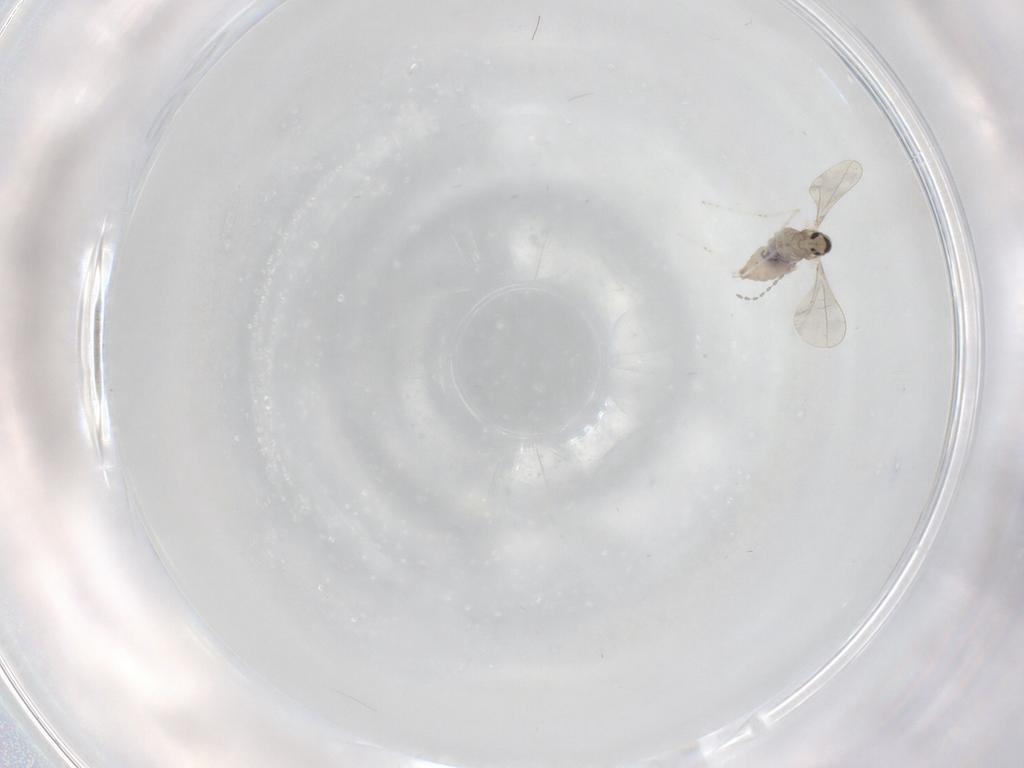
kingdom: Animalia
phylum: Arthropoda
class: Insecta
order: Diptera
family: Cecidomyiidae
